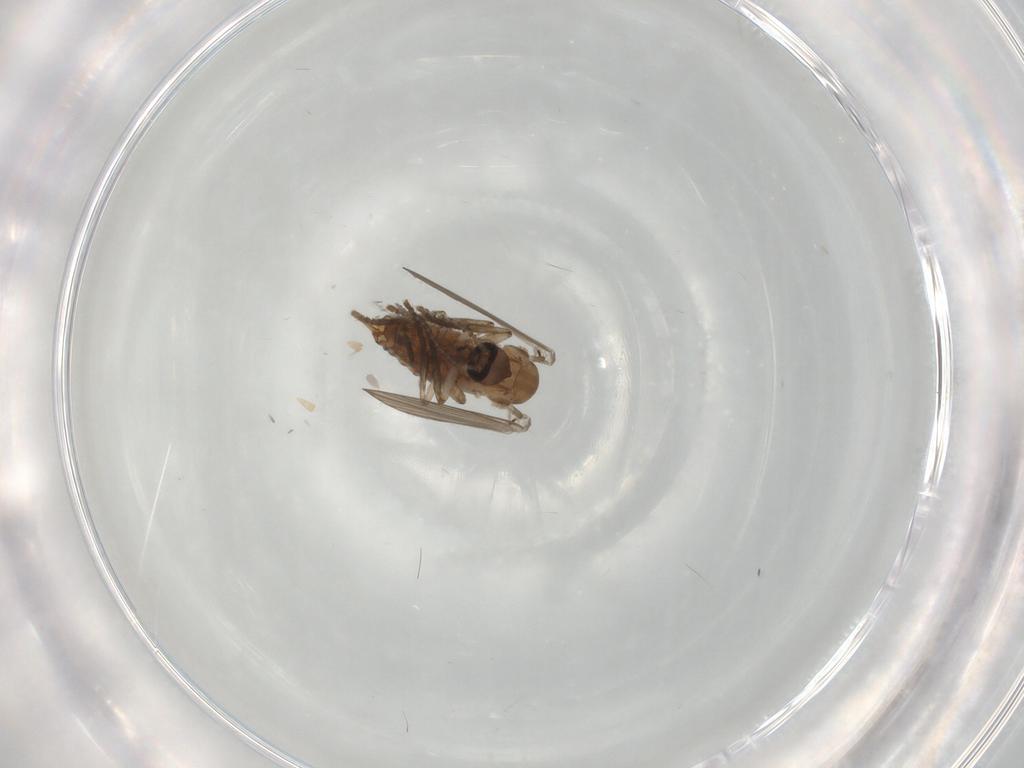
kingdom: Animalia
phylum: Arthropoda
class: Insecta
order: Diptera
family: Psychodidae
